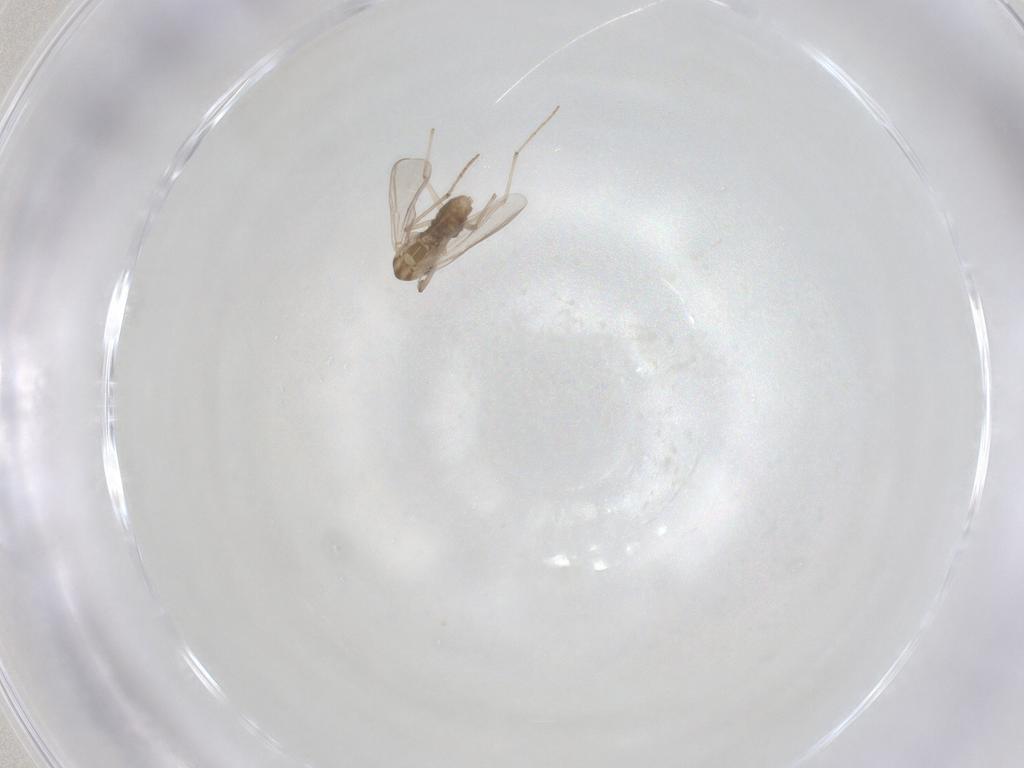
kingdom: Animalia
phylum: Arthropoda
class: Insecta
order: Diptera
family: Chironomidae
